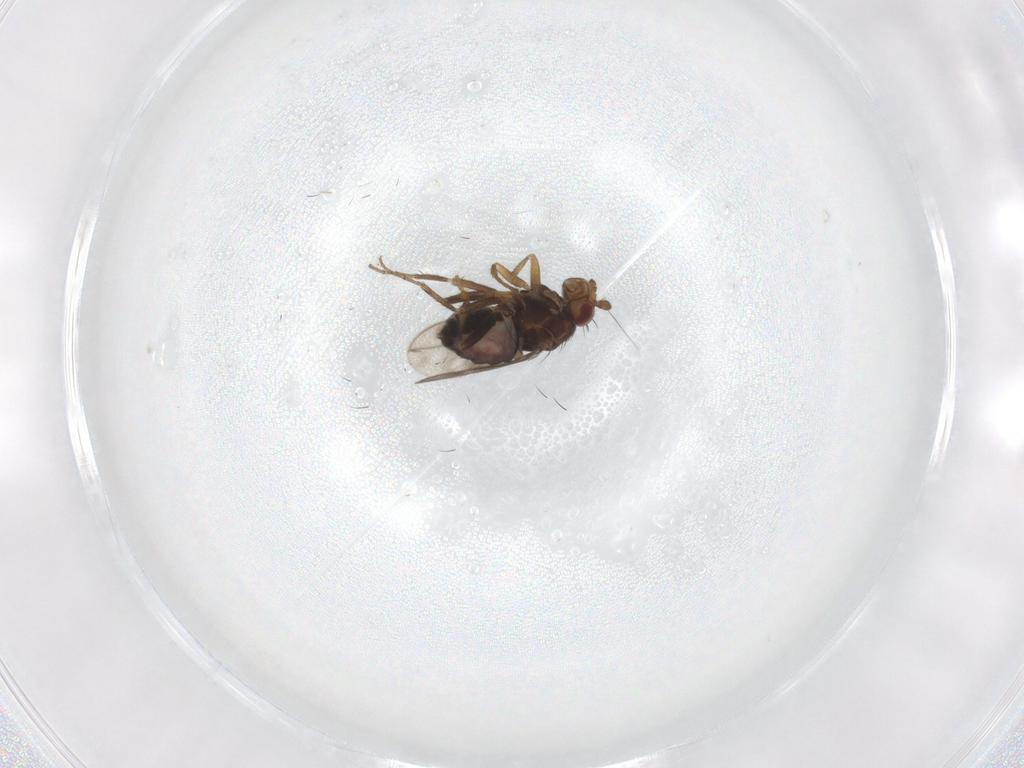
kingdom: Animalia
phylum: Arthropoda
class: Insecta
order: Diptera
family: Sphaeroceridae
